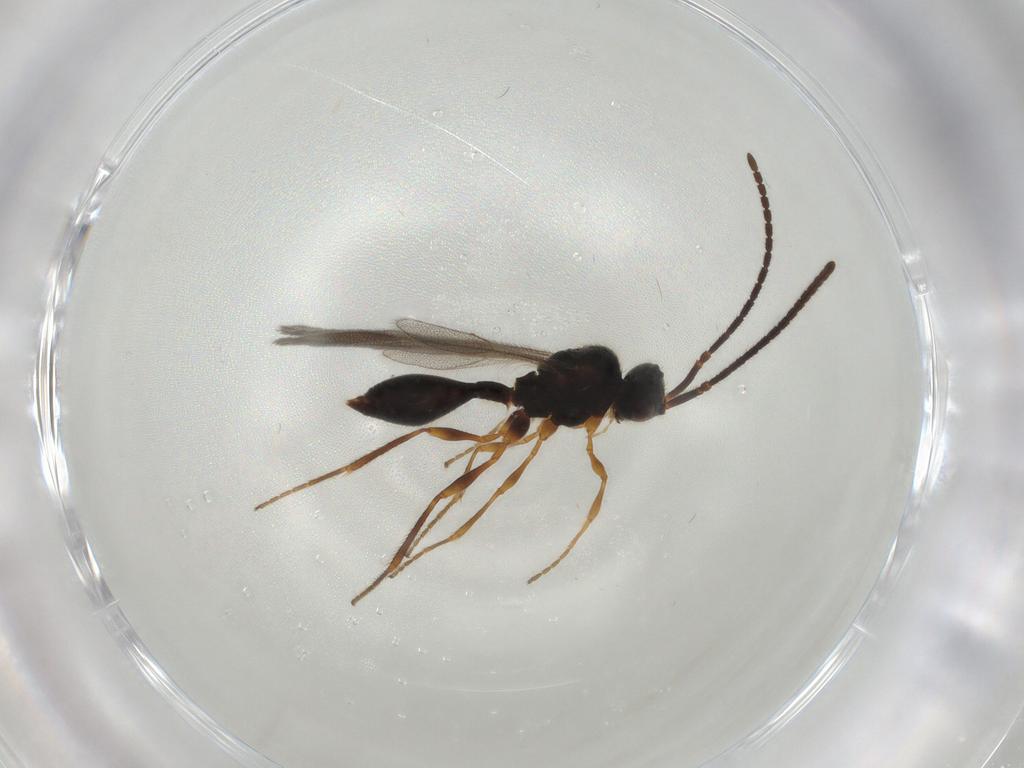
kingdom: Animalia
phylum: Arthropoda
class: Insecta
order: Hymenoptera
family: Diapriidae
